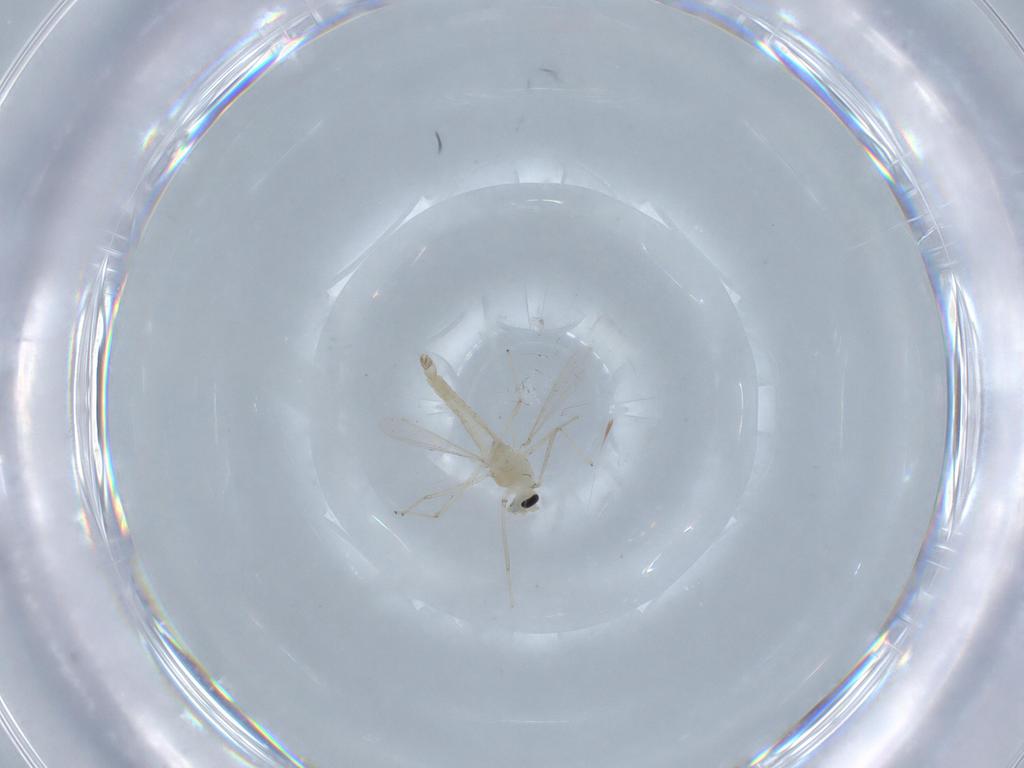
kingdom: Animalia
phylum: Arthropoda
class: Insecta
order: Diptera
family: Chironomidae
